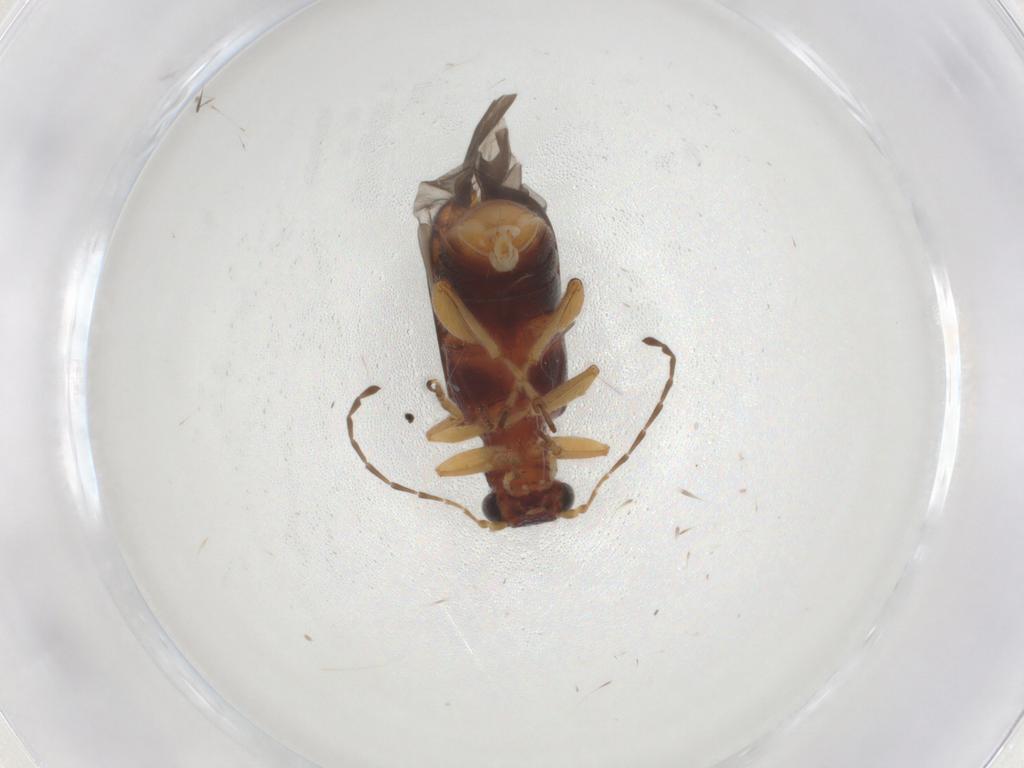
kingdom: Animalia
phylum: Arthropoda
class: Insecta
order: Coleoptera
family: Chrysomelidae
